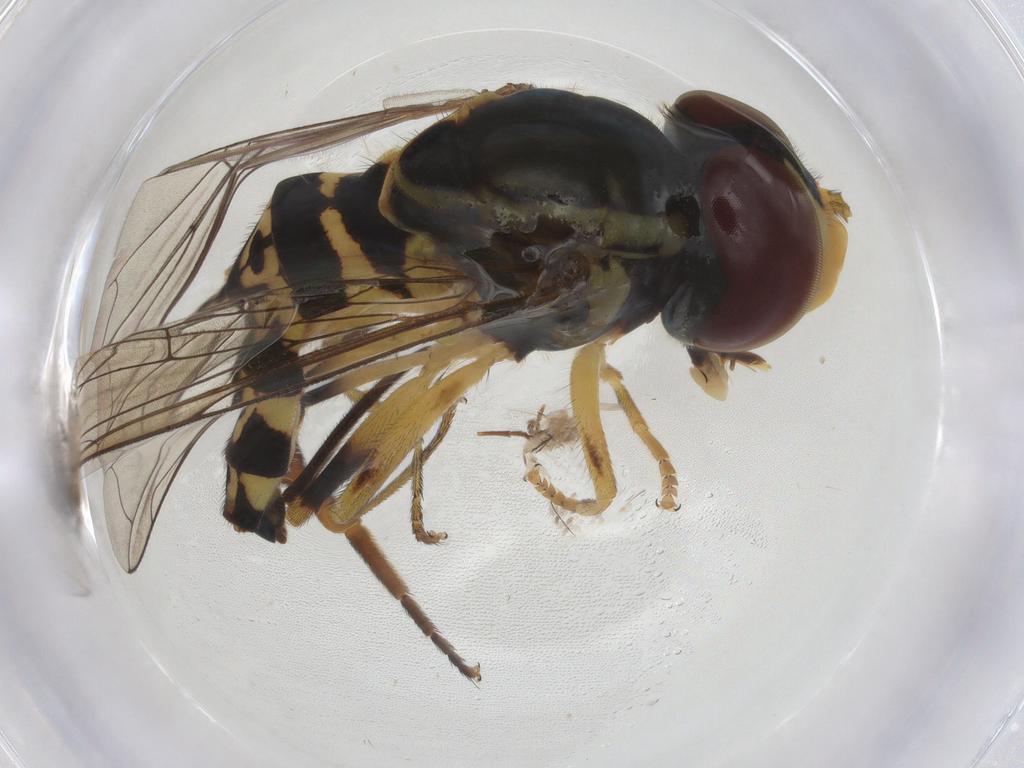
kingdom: Animalia
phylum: Arthropoda
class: Insecta
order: Diptera
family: Syrphidae
